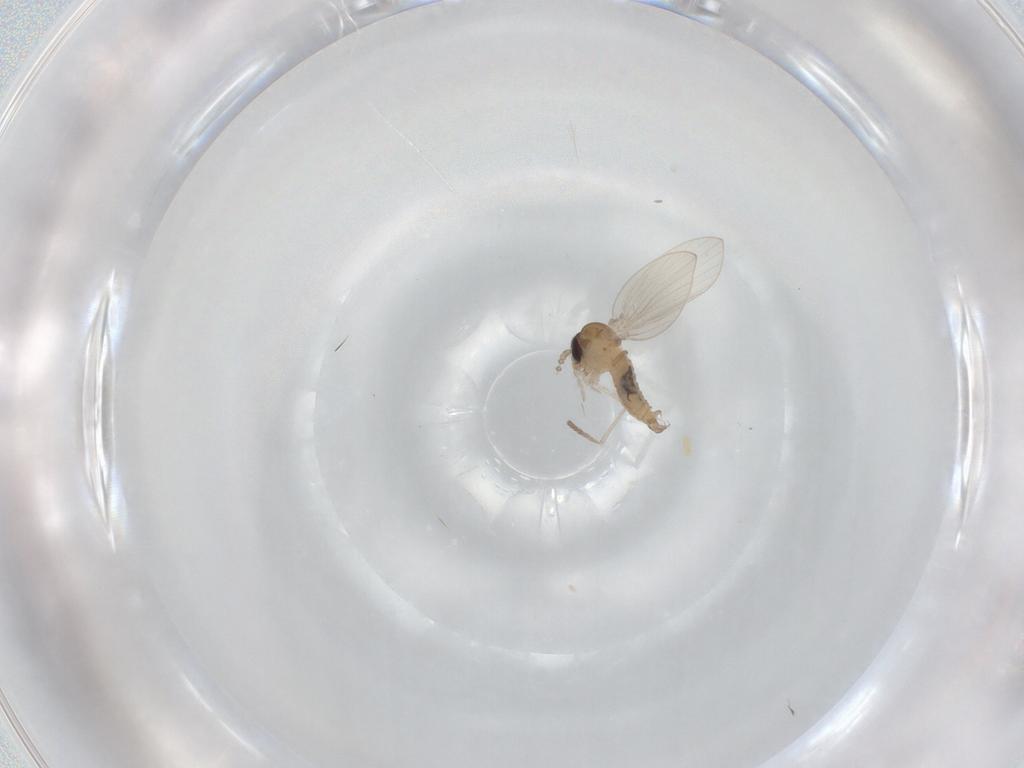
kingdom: Animalia
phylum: Arthropoda
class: Insecta
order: Diptera
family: Psychodidae
